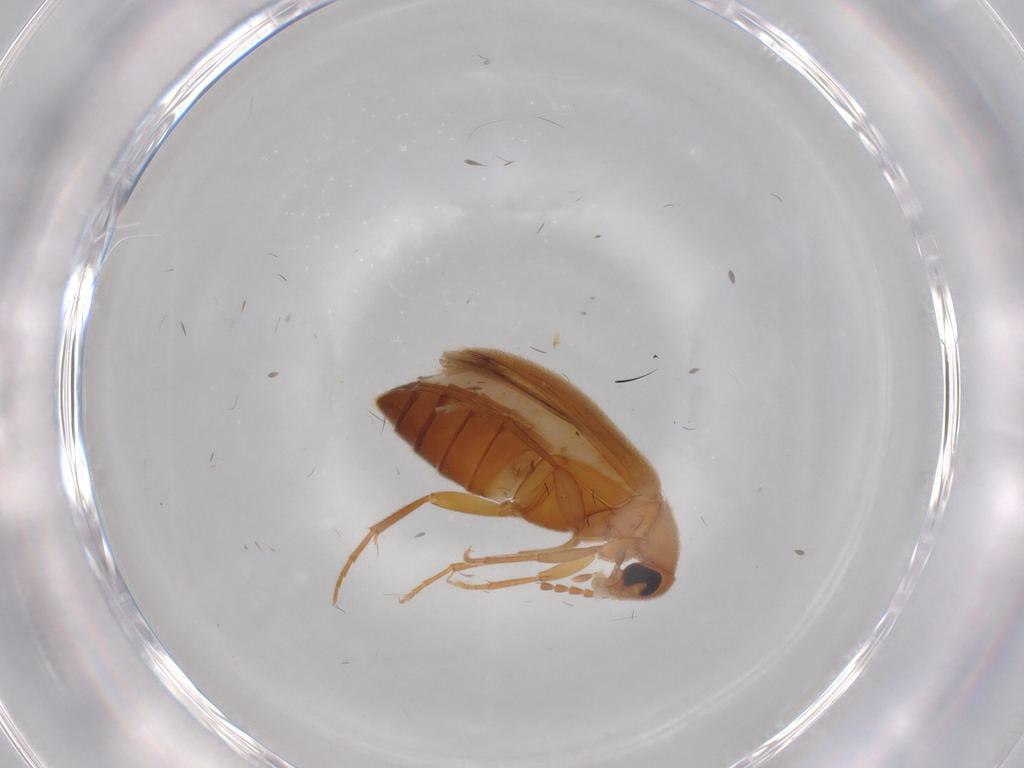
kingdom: Animalia
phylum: Arthropoda
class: Insecta
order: Coleoptera
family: Scraptiidae
